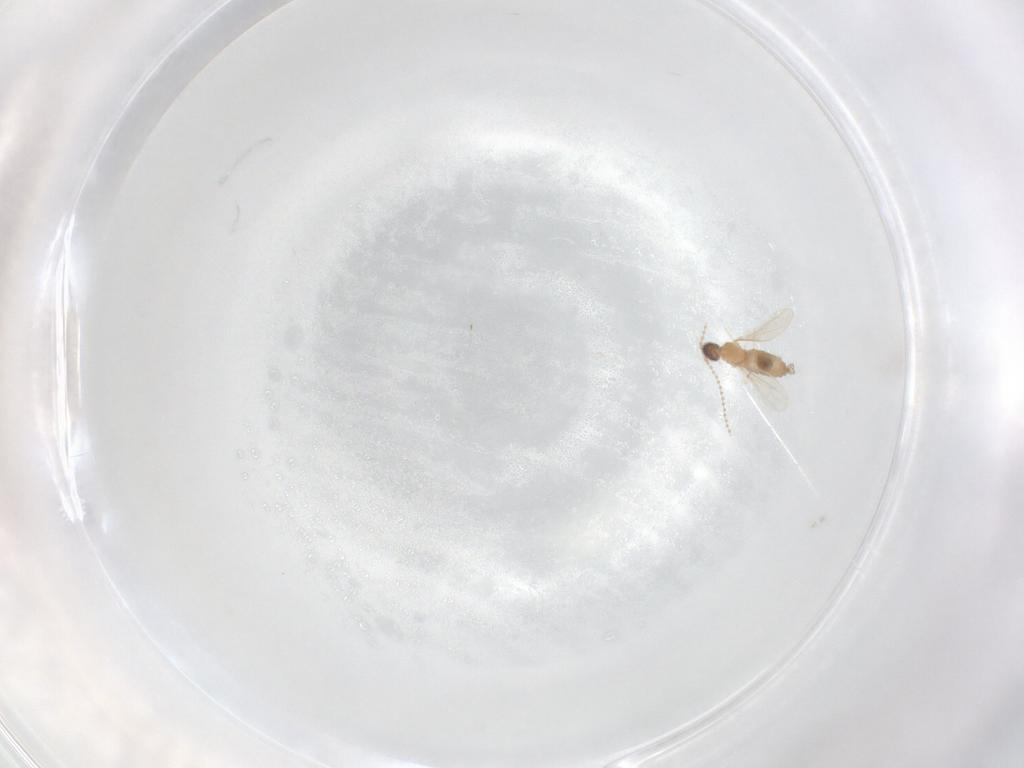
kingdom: Animalia
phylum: Arthropoda
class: Insecta
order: Diptera
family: Cecidomyiidae
